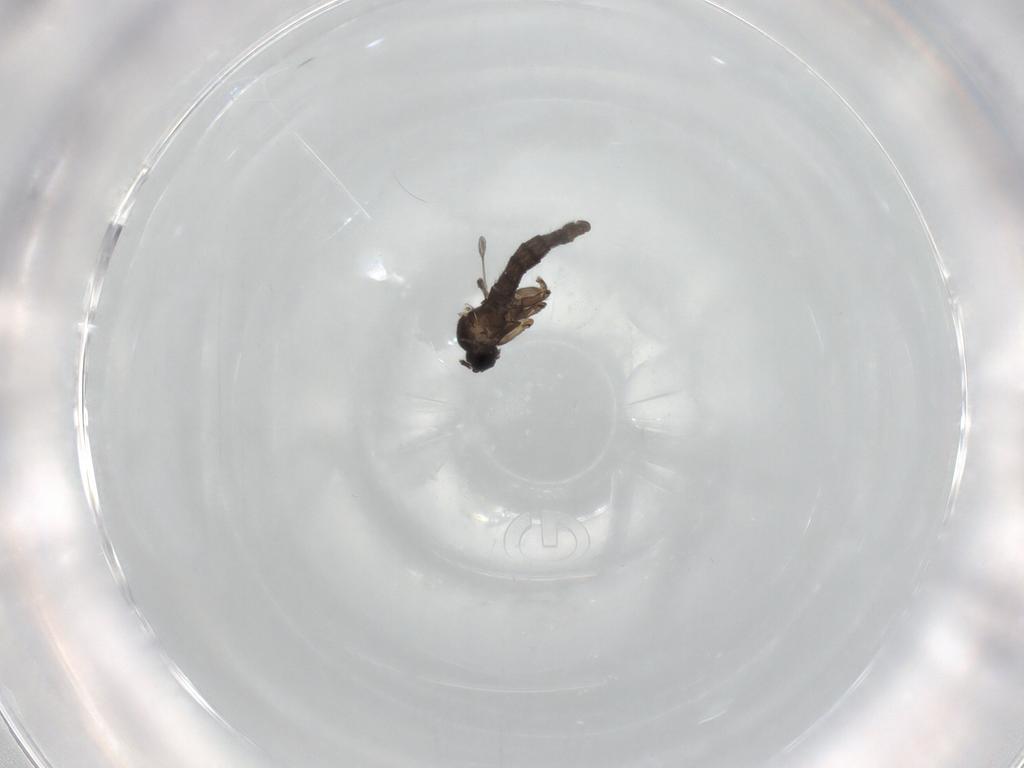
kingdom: Animalia
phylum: Arthropoda
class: Insecta
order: Diptera
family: Sciaridae
